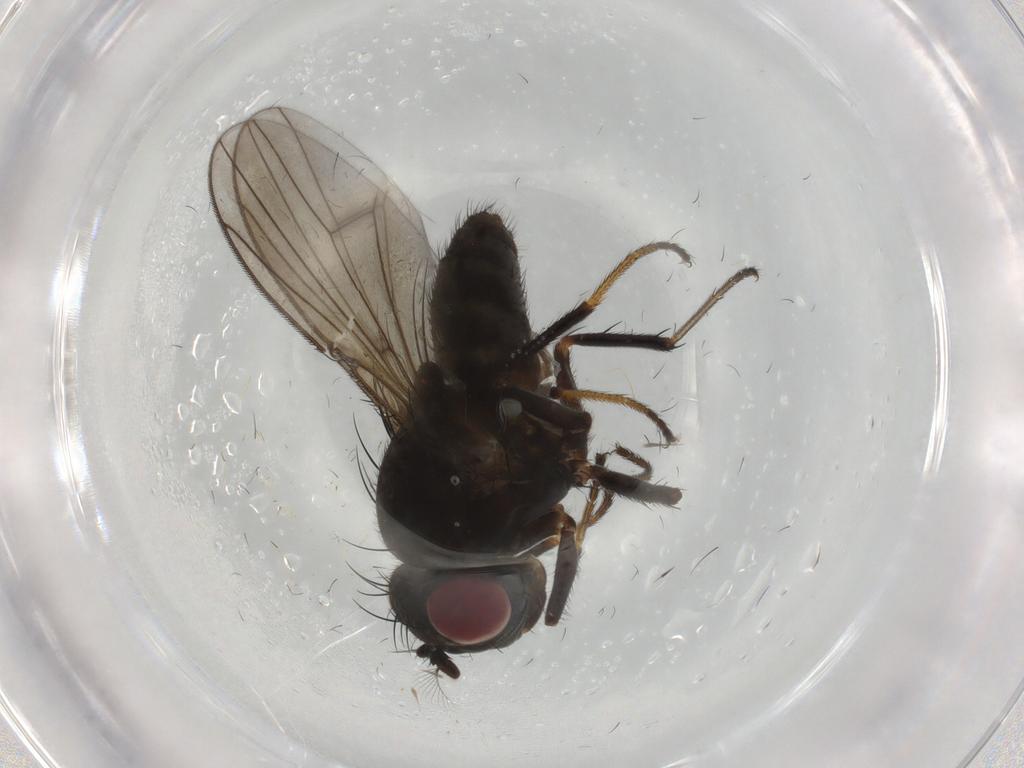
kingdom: Animalia
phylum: Arthropoda
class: Insecta
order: Diptera
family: Ephydridae
